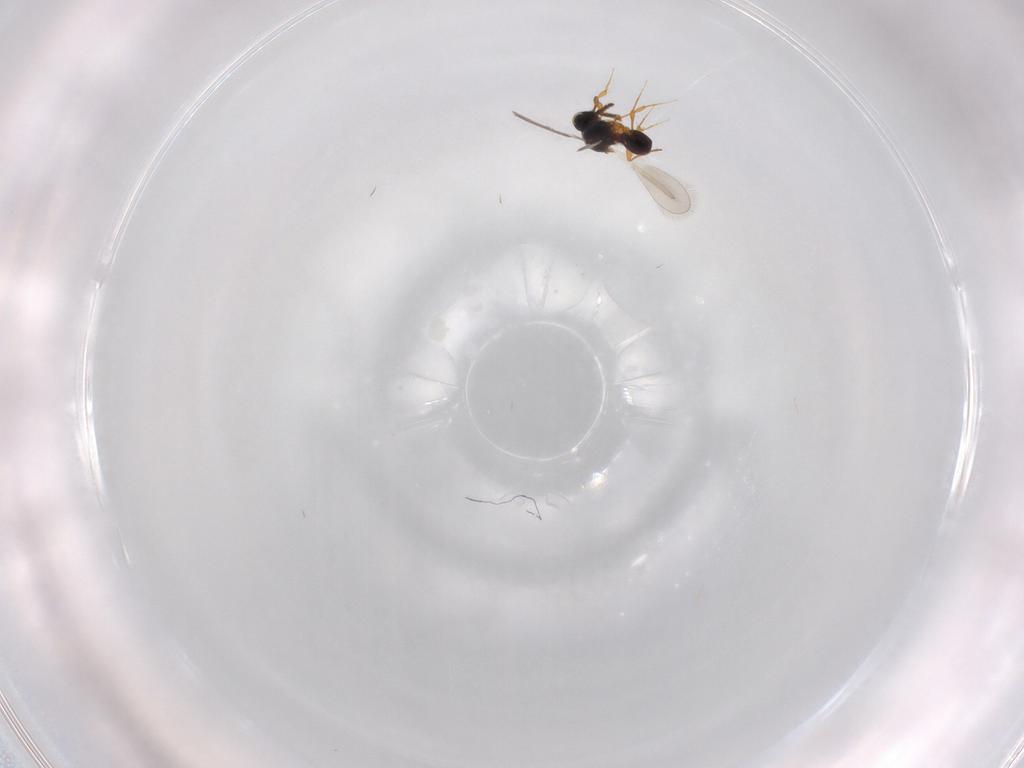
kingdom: Animalia
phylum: Arthropoda
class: Insecta
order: Hymenoptera
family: Platygastridae
